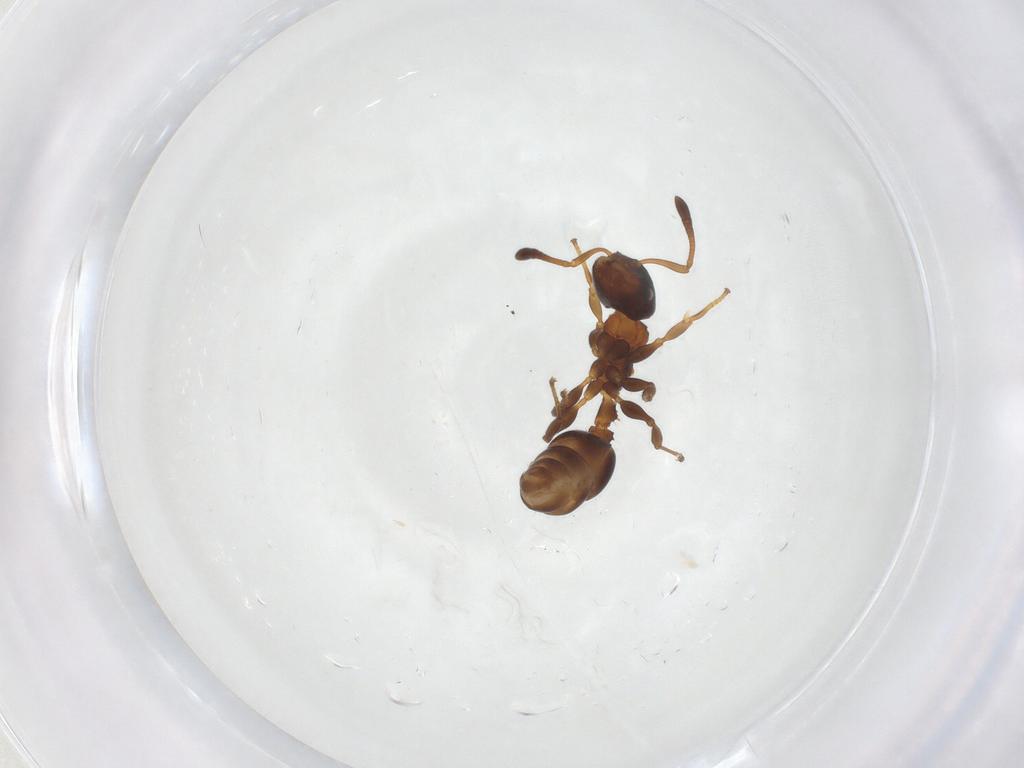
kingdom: Animalia
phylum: Arthropoda
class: Insecta
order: Hymenoptera
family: Formicidae
